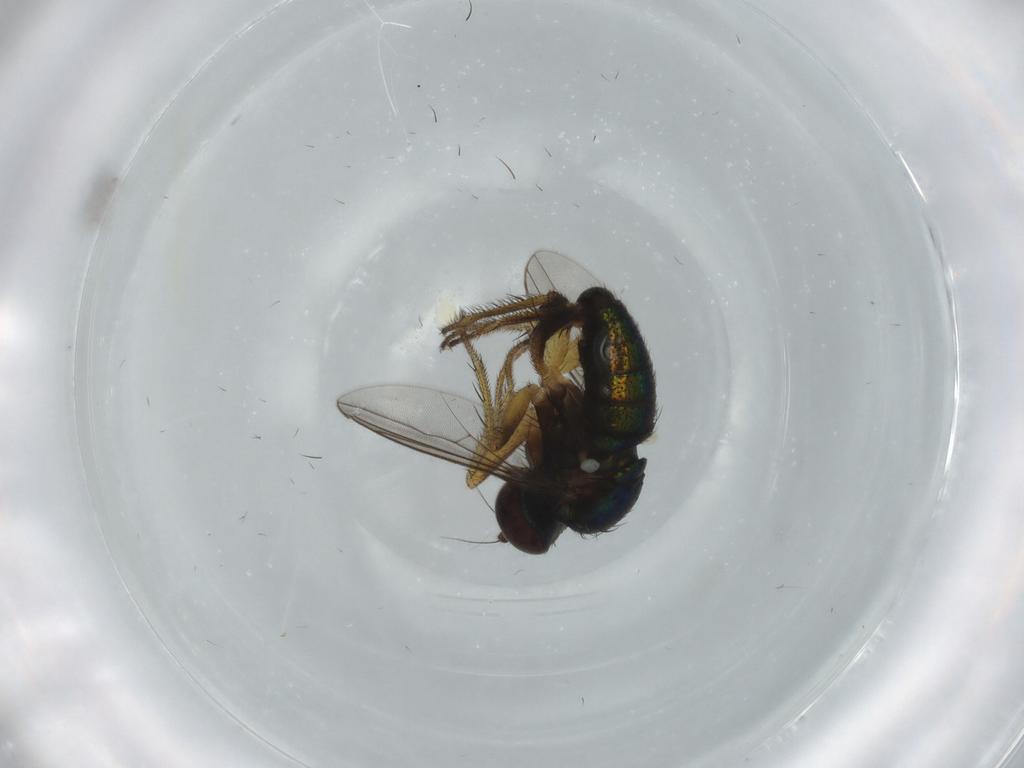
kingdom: Animalia
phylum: Arthropoda
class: Insecta
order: Diptera
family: Dolichopodidae
